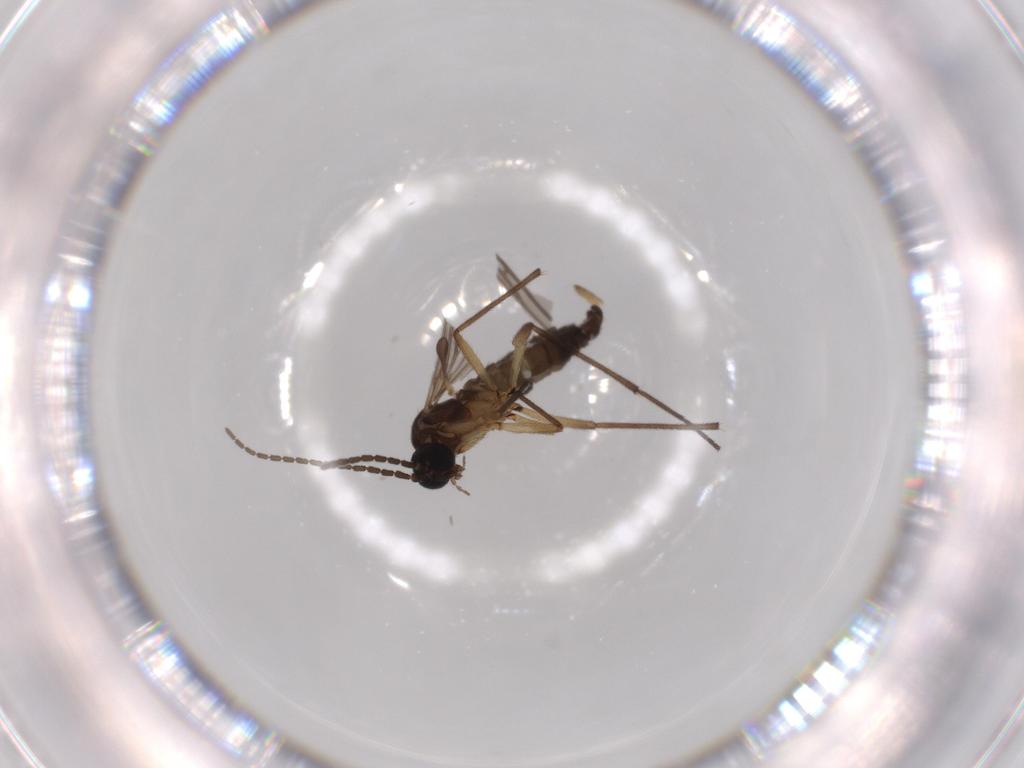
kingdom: Animalia
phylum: Arthropoda
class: Insecta
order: Diptera
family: Sciaridae
